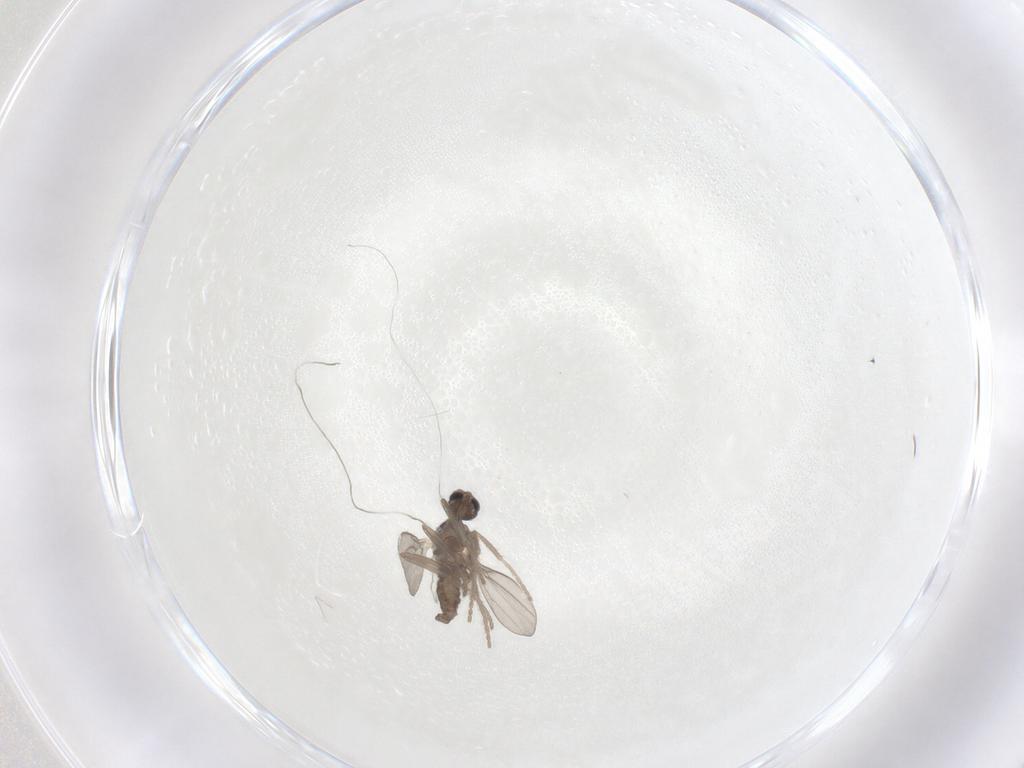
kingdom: Animalia
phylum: Arthropoda
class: Insecta
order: Diptera
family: Cecidomyiidae
